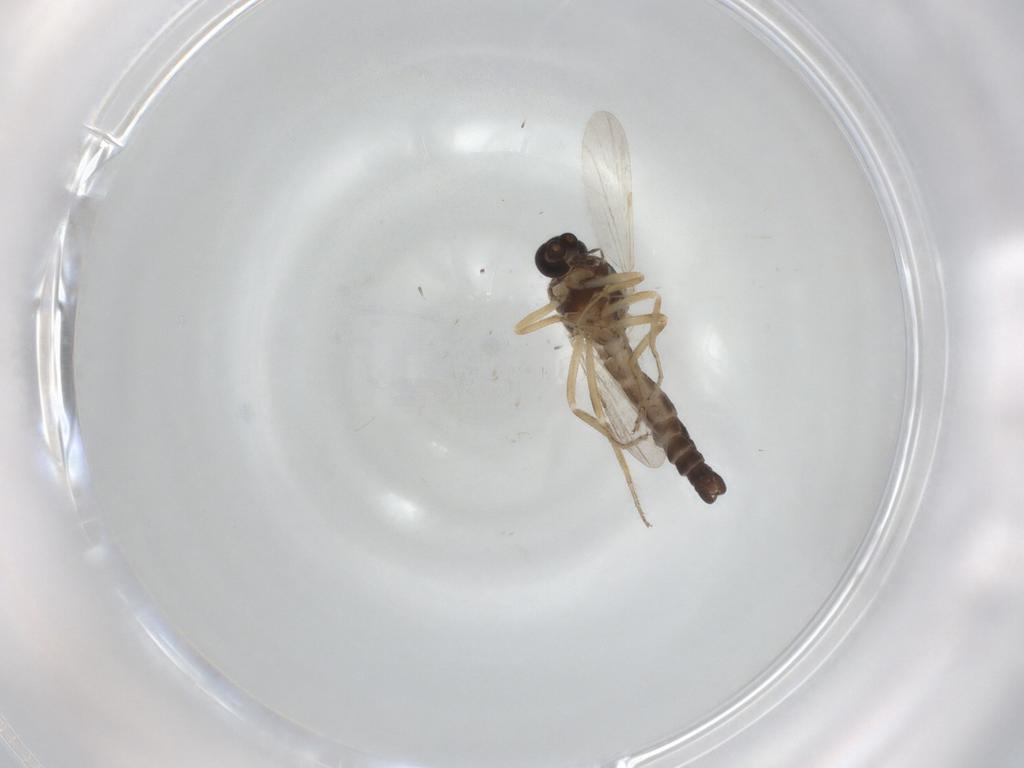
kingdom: Animalia
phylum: Arthropoda
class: Insecta
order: Diptera
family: Ceratopogonidae
